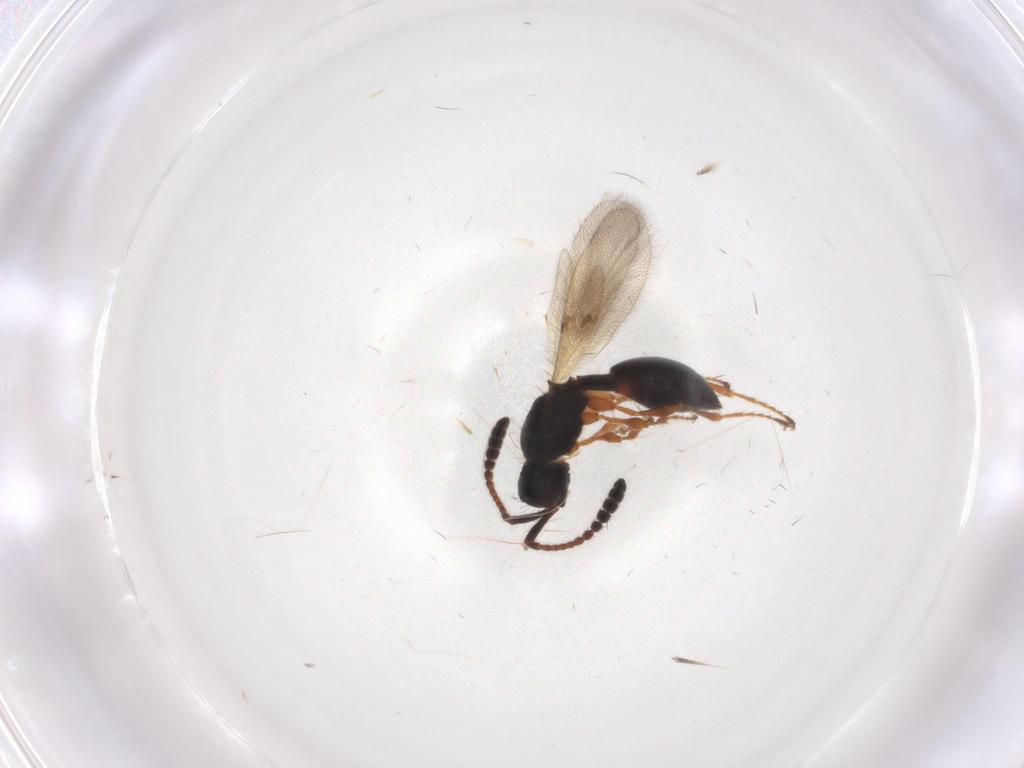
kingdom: Animalia
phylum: Arthropoda
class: Insecta
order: Hymenoptera
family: Diapriidae
